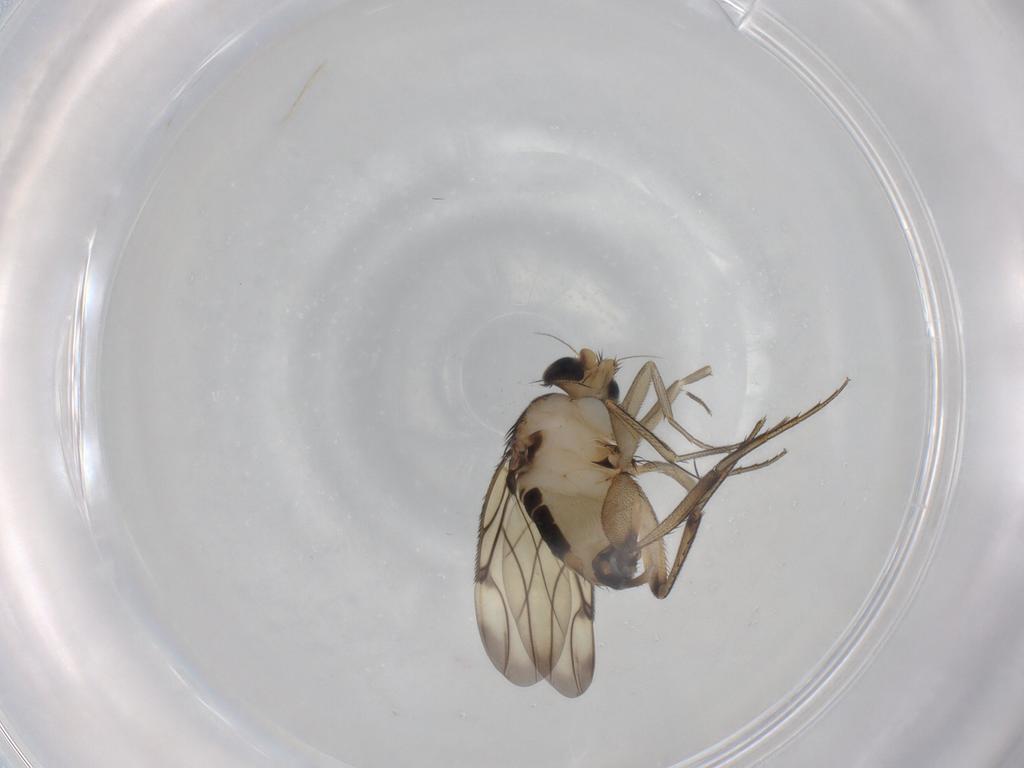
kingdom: Animalia
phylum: Arthropoda
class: Insecta
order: Diptera
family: Phoridae
